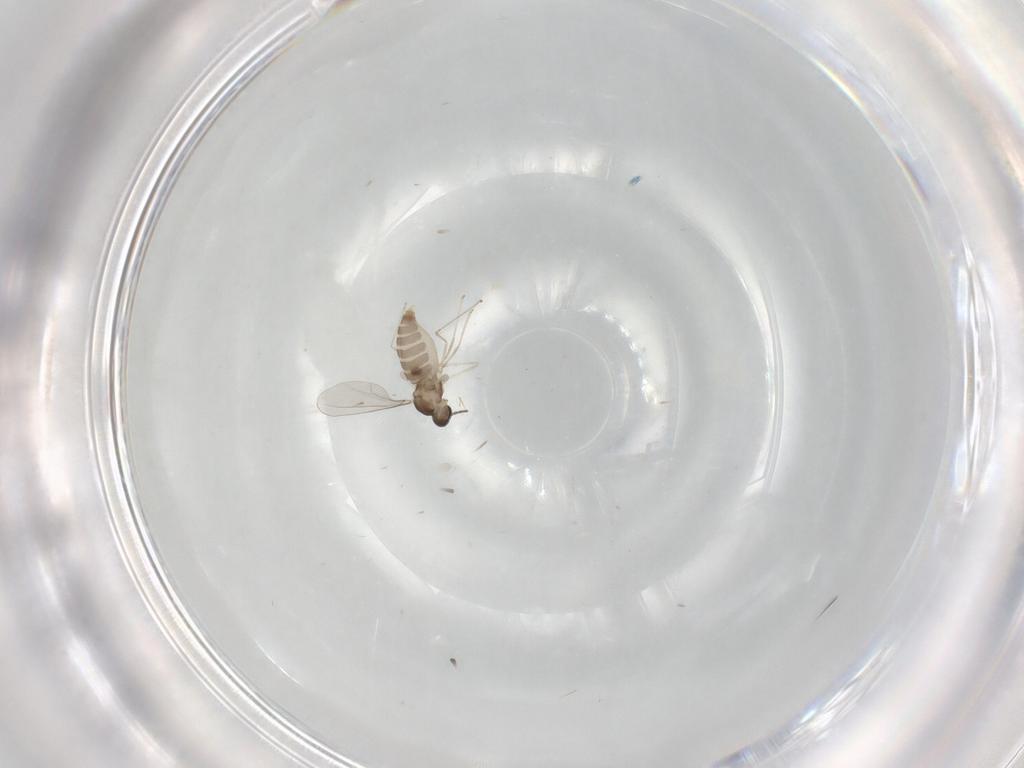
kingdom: Animalia
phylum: Arthropoda
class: Insecta
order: Diptera
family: Cecidomyiidae
